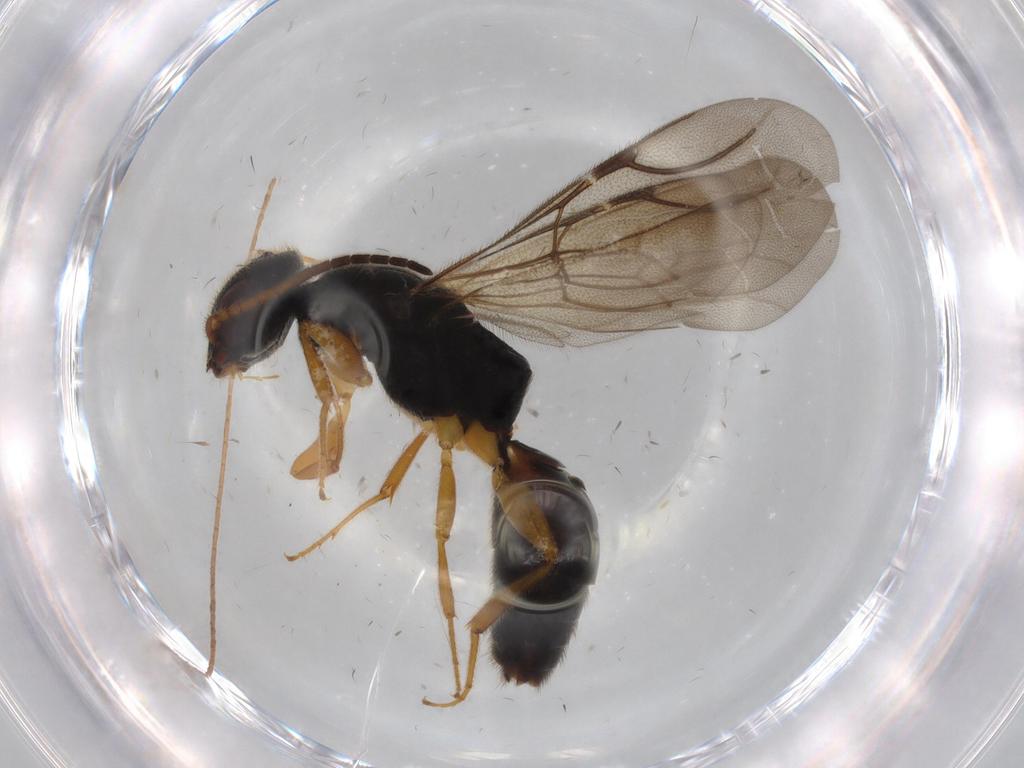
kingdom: Animalia
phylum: Arthropoda
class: Insecta
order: Hymenoptera
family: Bethylidae
